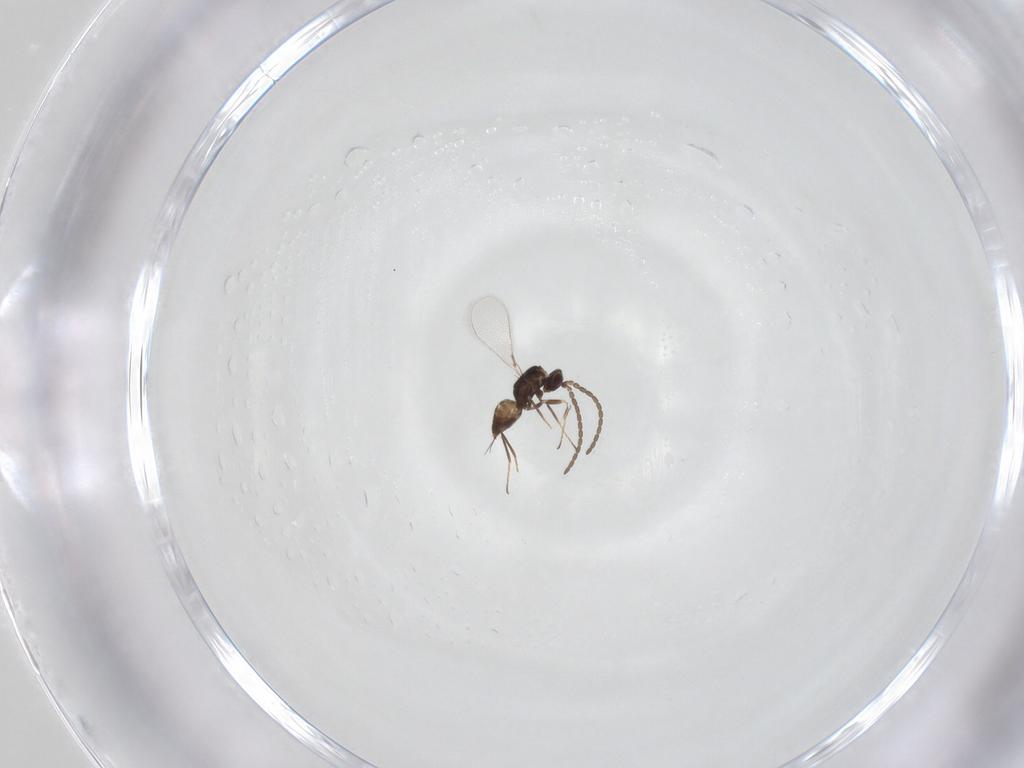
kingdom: Animalia
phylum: Arthropoda
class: Insecta
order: Hymenoptera
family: Mymaridae
